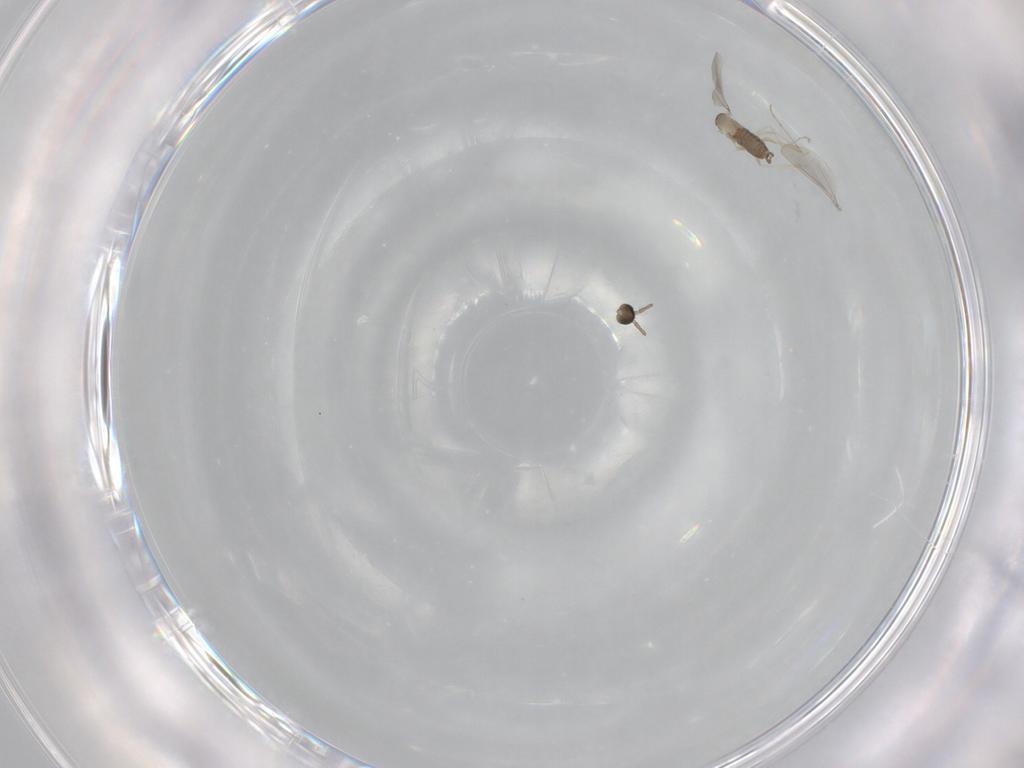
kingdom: Animalia
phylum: Arthropoda
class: Insecta
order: Diptera
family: Cecidomyiidae
